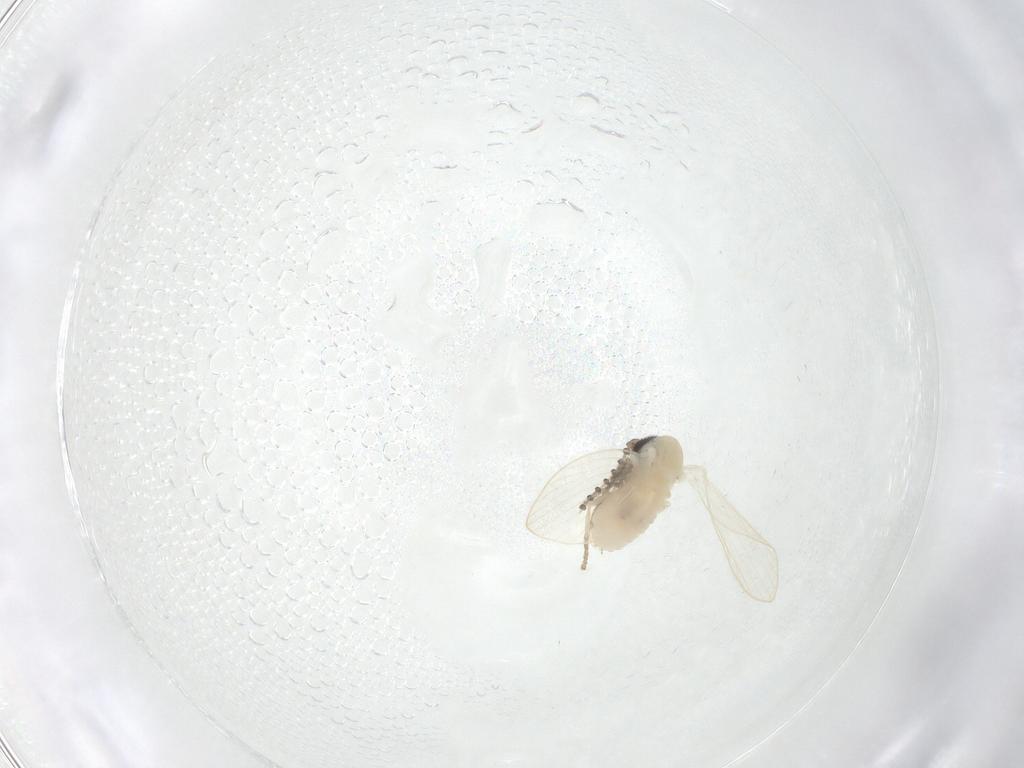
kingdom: Animalia
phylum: Arthropoda
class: Insecta
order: Diptera
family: Psychodidae
